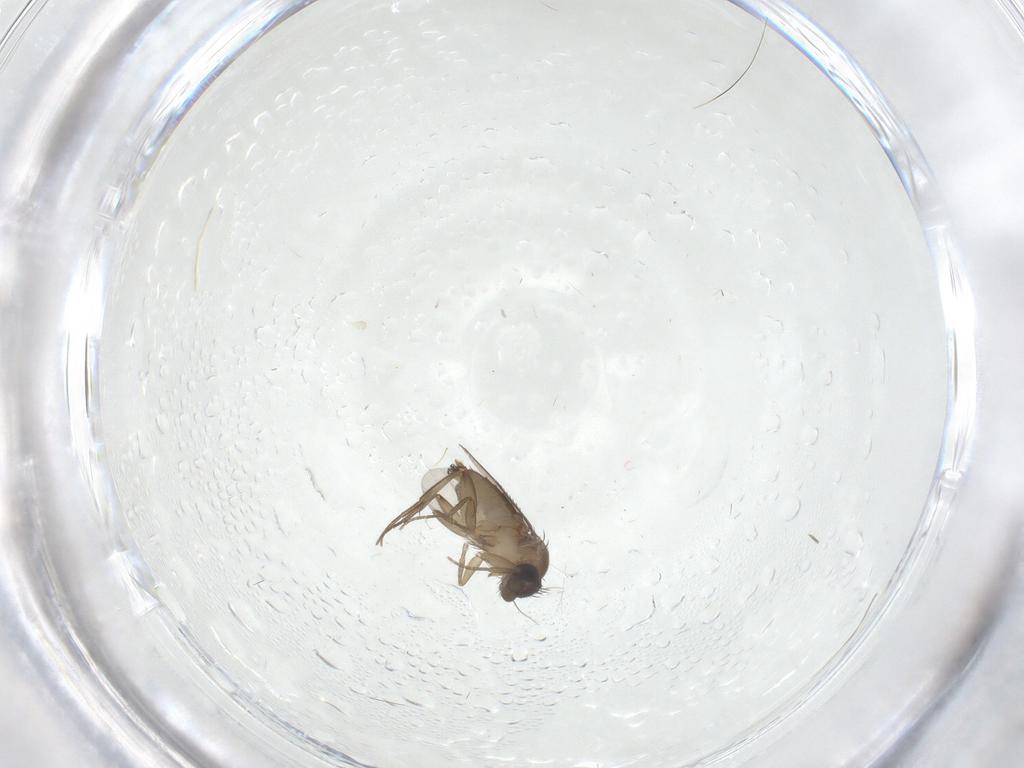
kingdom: Animalia
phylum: Arthropoda
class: Insecta
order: Diptera
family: Phoridae
